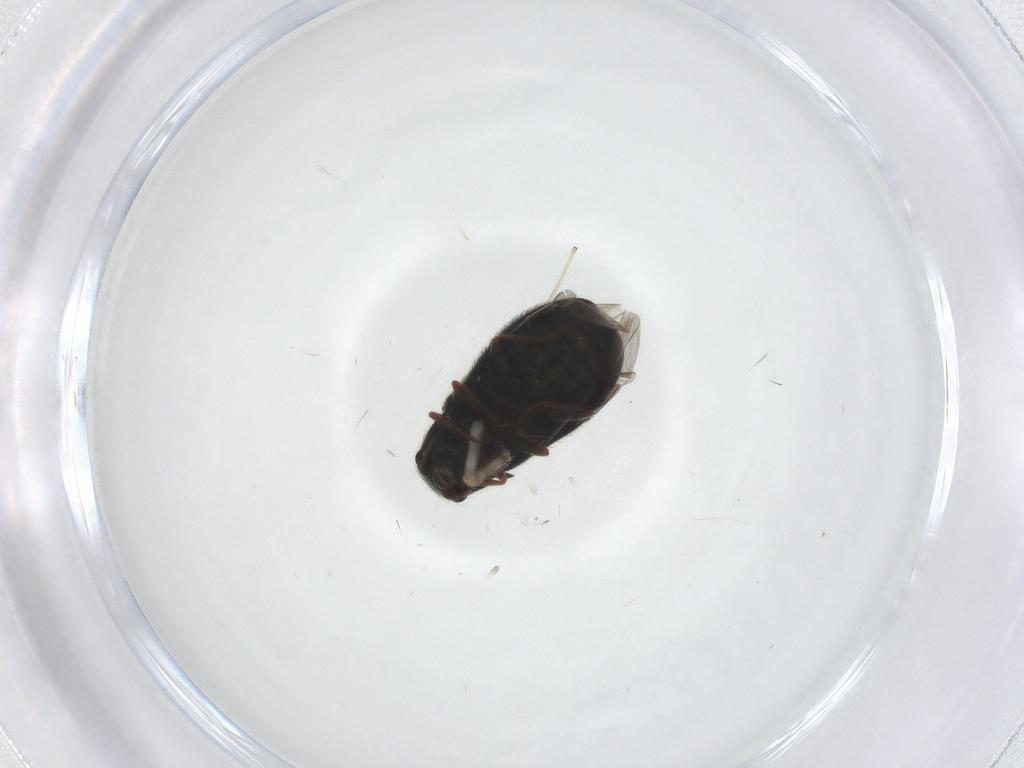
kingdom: Animalia
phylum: Arthropoda
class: Insecta
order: Coleoptera
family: Melyridae
